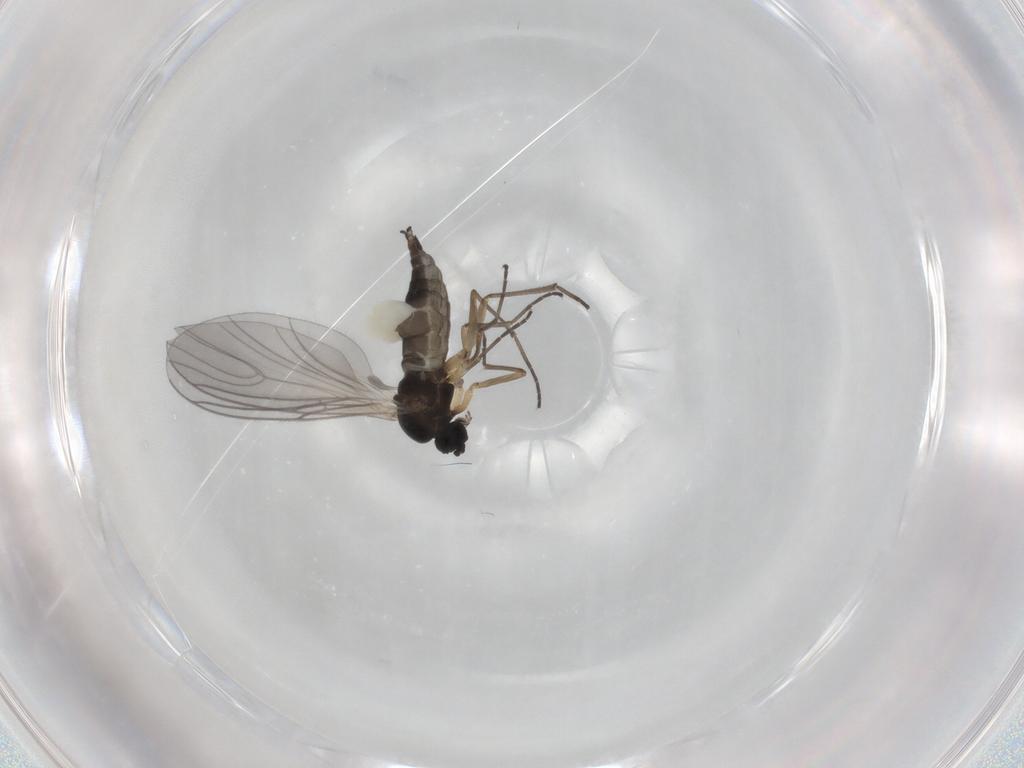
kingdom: Animalia
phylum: Arthropoda
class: Insecta
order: Diptera
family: Sciaridae
